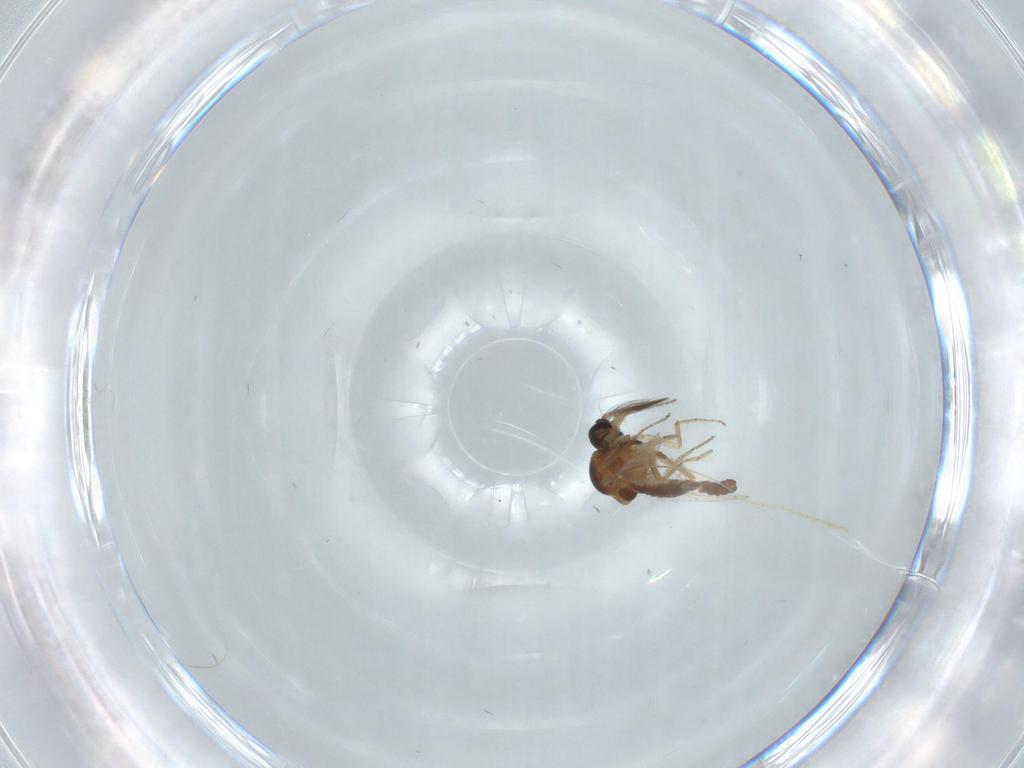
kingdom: Animalia
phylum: Arthropoda
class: Insecta
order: Diptera
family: Ceratopogonidae
